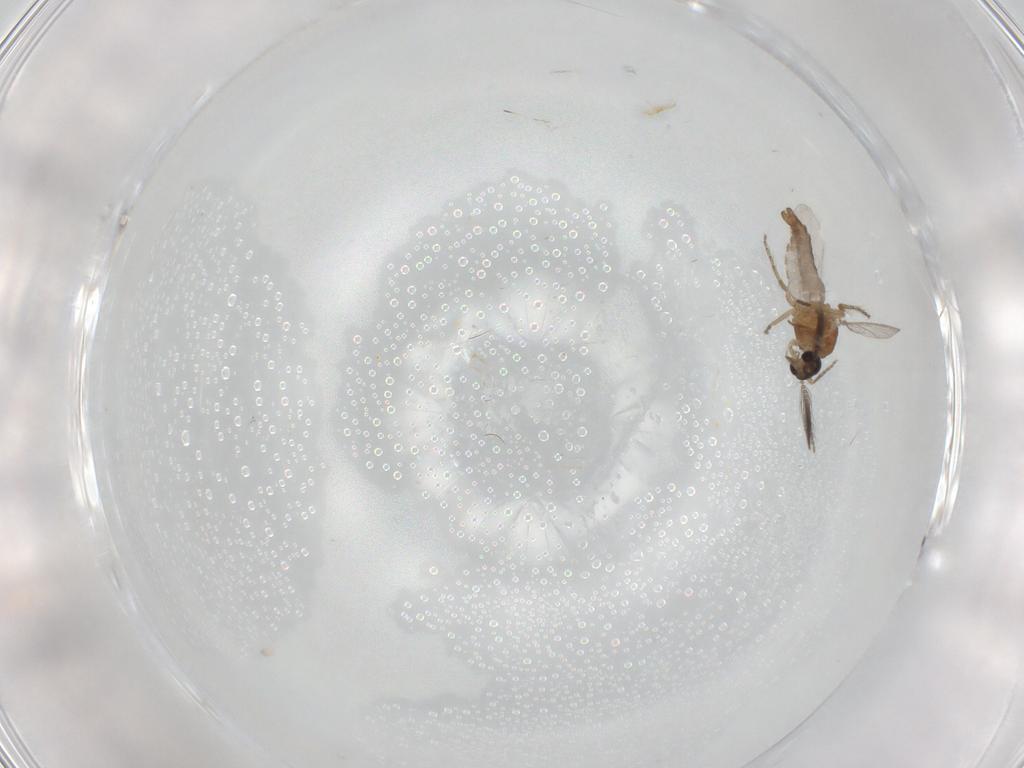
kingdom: Animalia
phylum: Arthropoda
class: Insecta
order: Diptera
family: Ceratopogonidae
